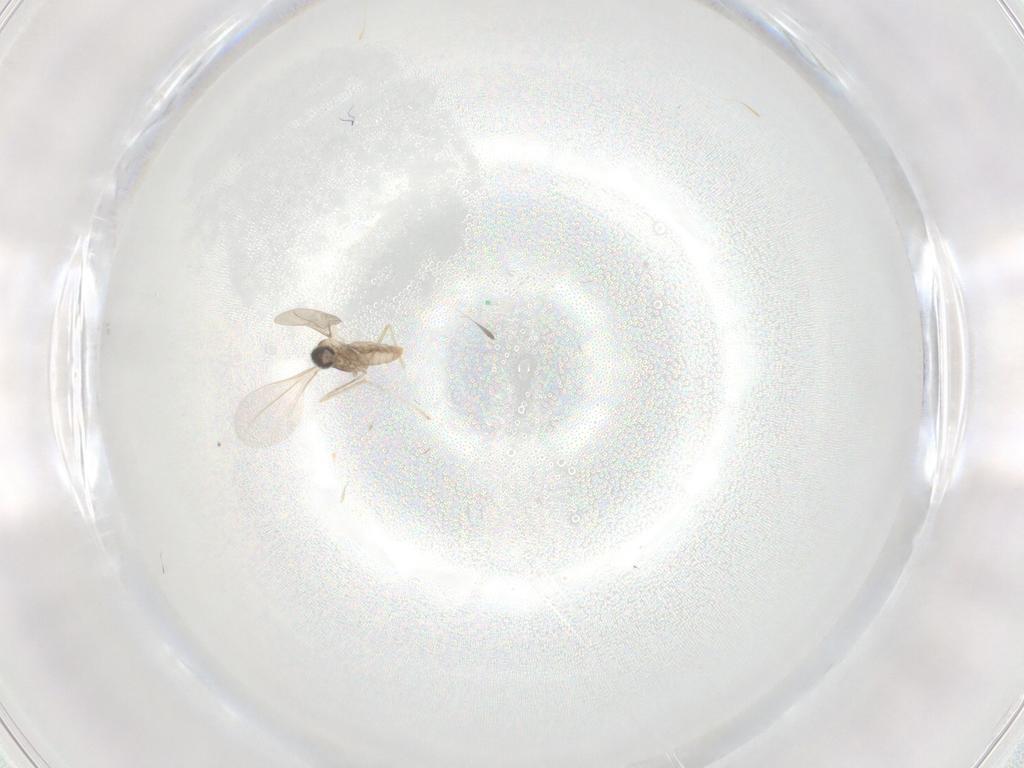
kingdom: Animalia
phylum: Arthropoda
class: Insecta
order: Diptera
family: Cecidomyiidae
